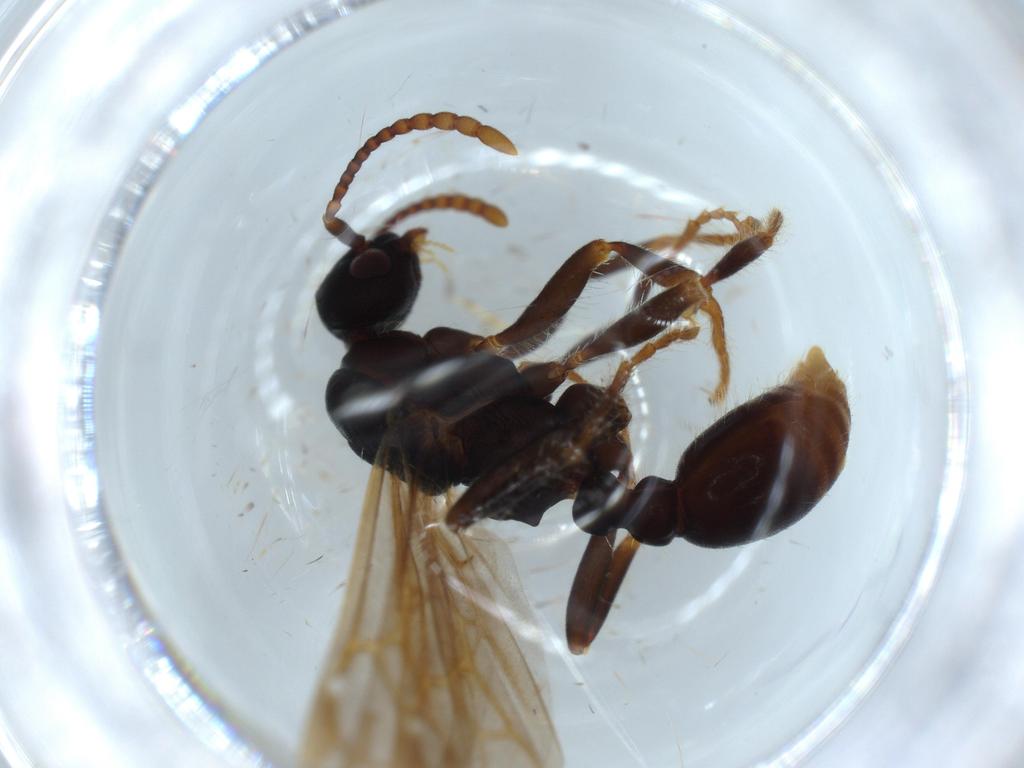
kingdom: Animalia
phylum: Arthropoda
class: Insecta
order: Hymenoptera
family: Formicidae
